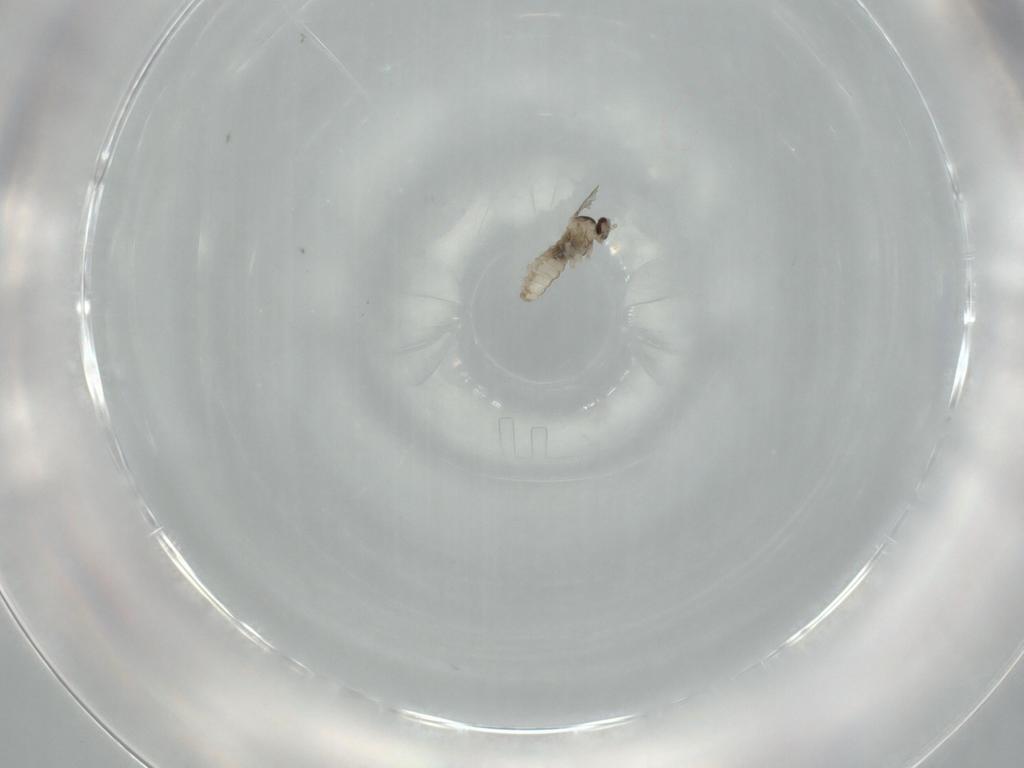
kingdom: Animalia
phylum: Arthropoda
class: Insecta
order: Diptera
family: Cecidomyiidae
